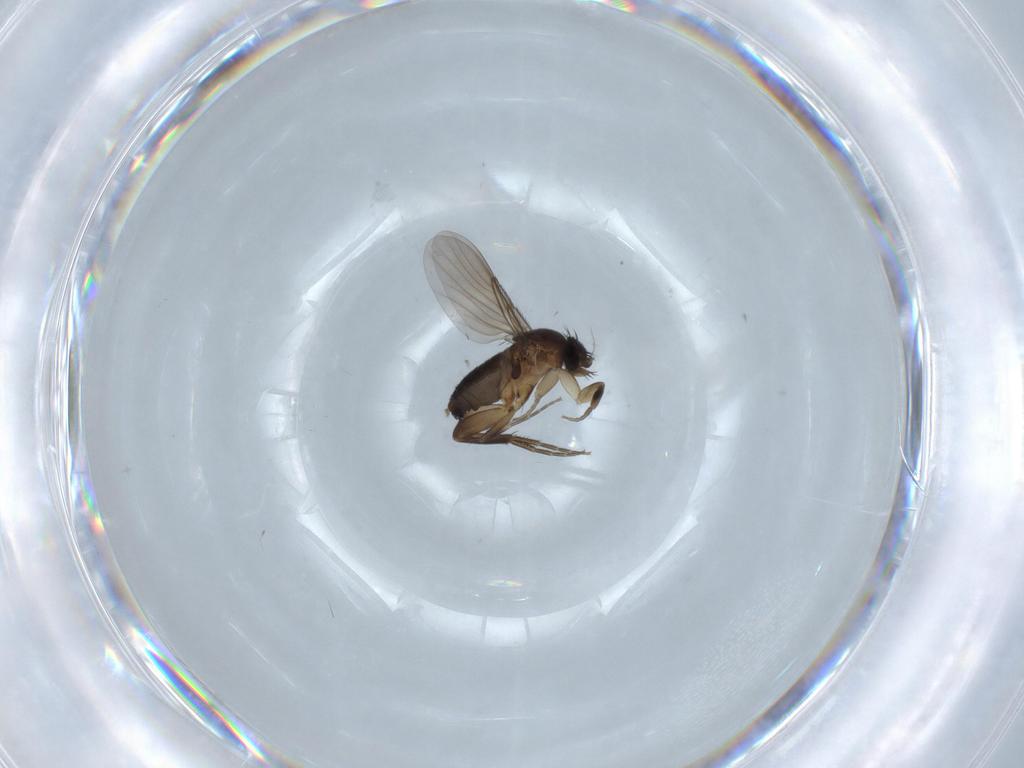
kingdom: Animalia
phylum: Arthropoda
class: Insecta
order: Diptera
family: Phoridae
